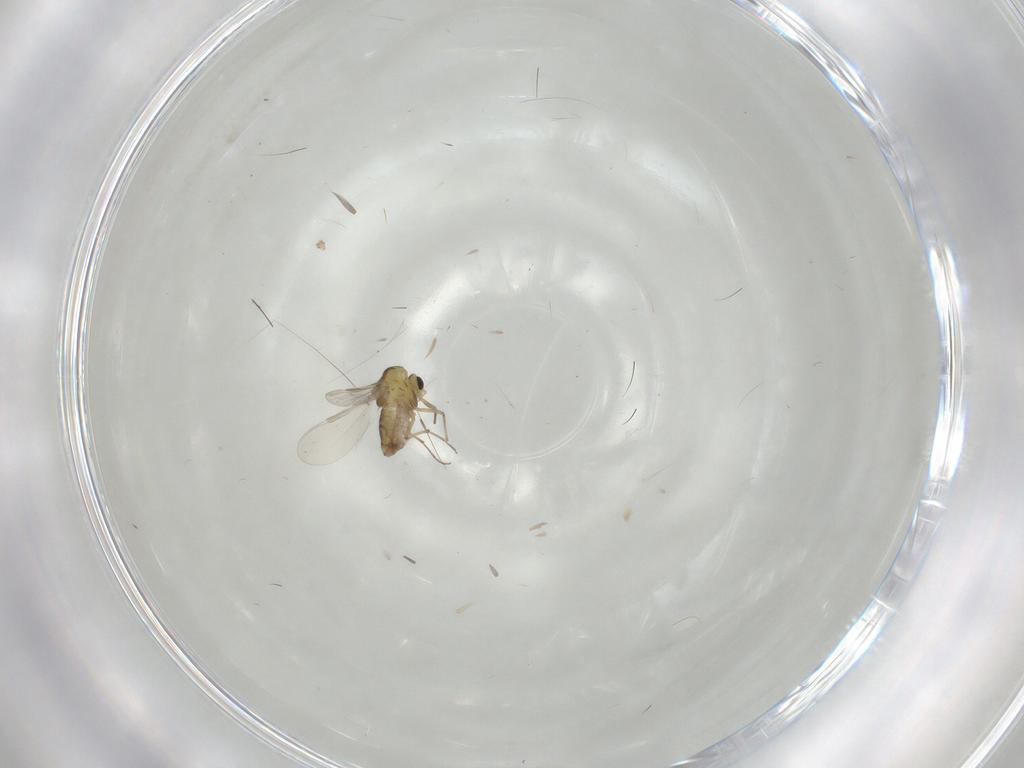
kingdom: Animalia
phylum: Arthropoda
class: Insecta
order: Diptera
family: Chironomidae
